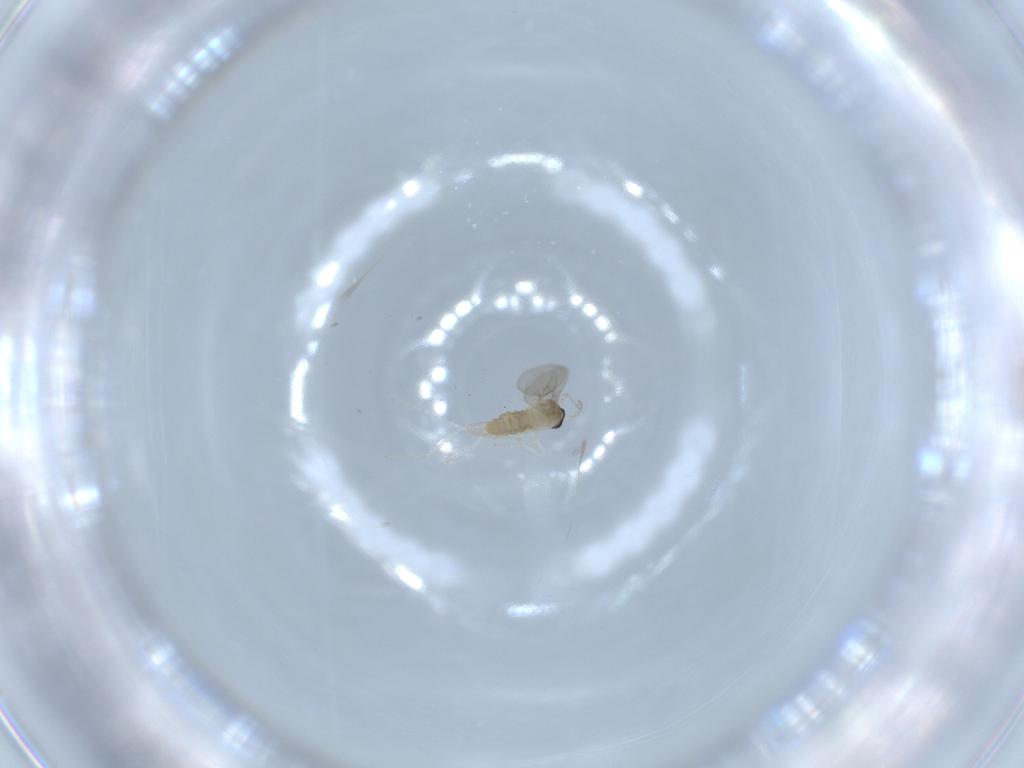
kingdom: Animalia
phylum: Arthropoda
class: Insecta
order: Diptera
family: Cecidomyiidae
